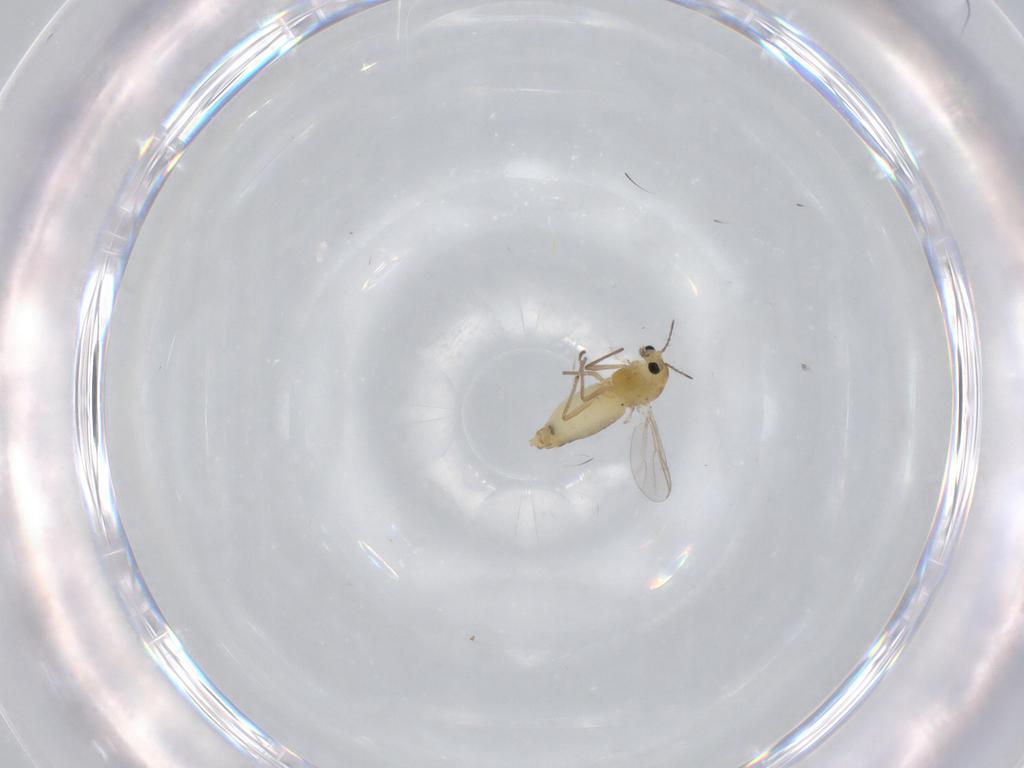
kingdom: Animalia
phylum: Arthropoda
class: Insecta
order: Diptera
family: Chironomidae
